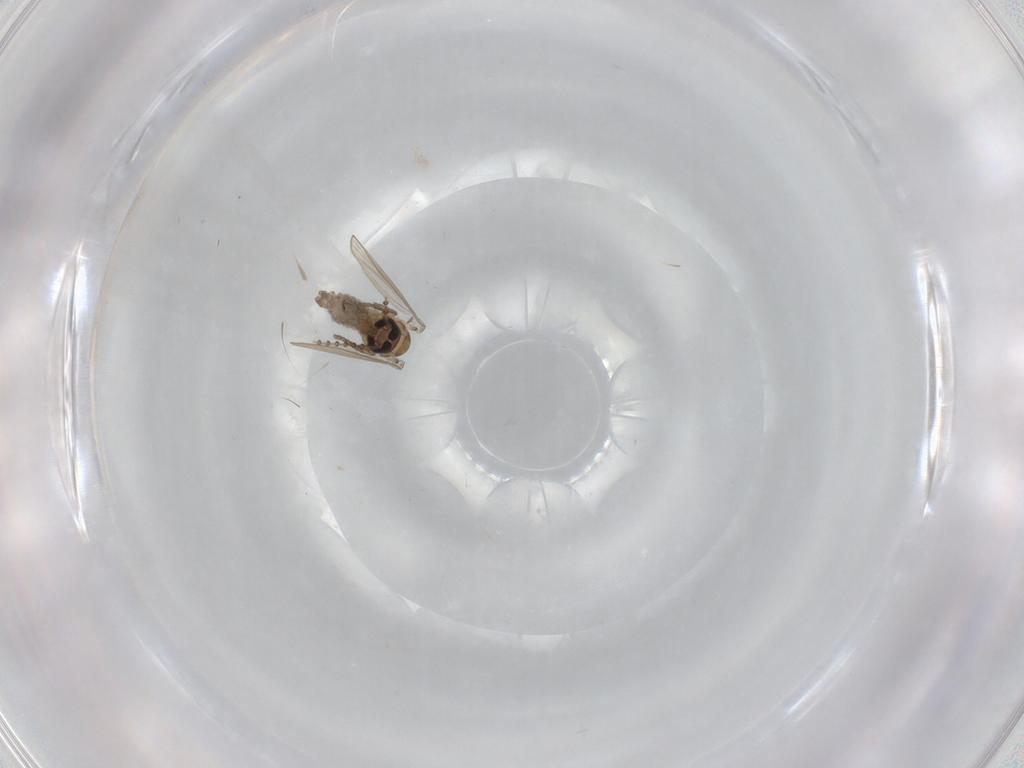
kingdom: Animalia
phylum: Arthropoda
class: Insecta
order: Diptera
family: Psychodidae
